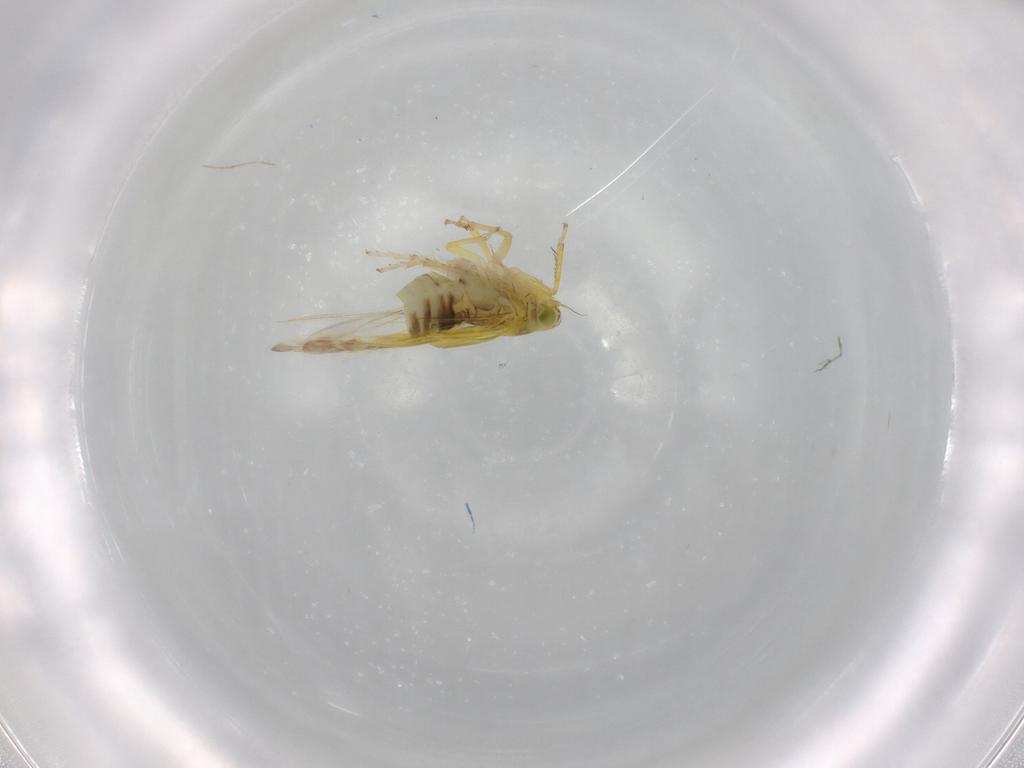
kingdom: Animalia
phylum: Arthropoda
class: Insecta
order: Hemiptera
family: Cicadellidae
